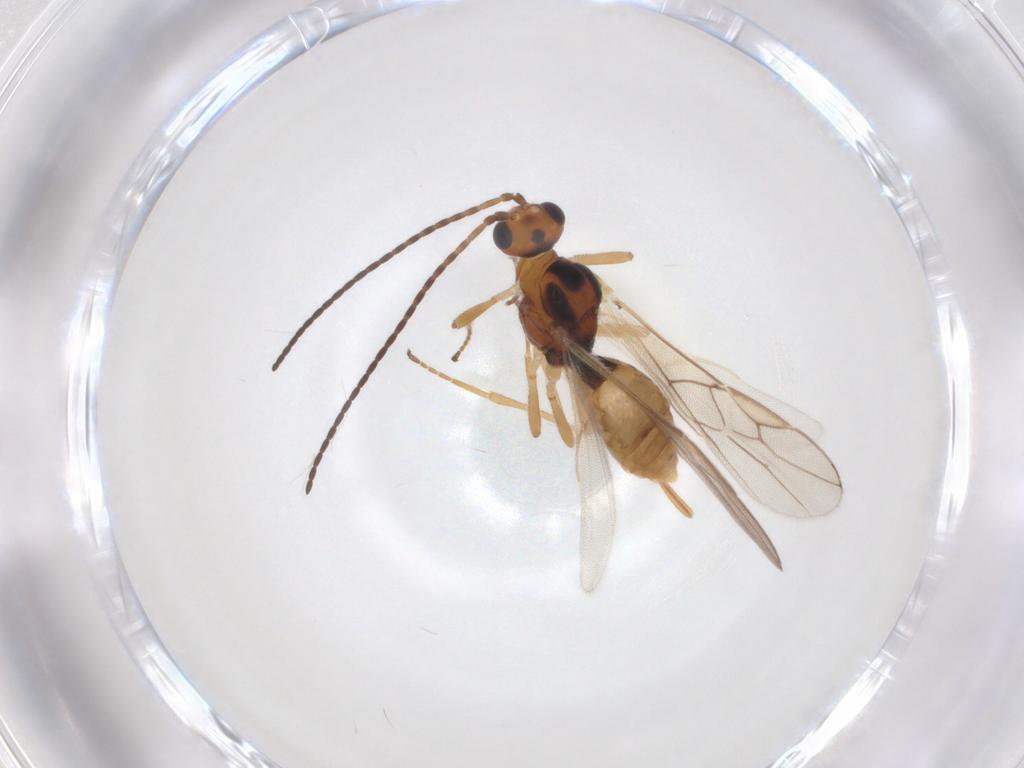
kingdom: Animalia
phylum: Arthropoda
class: Insecta
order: Hymenoptera
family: Braconidae
